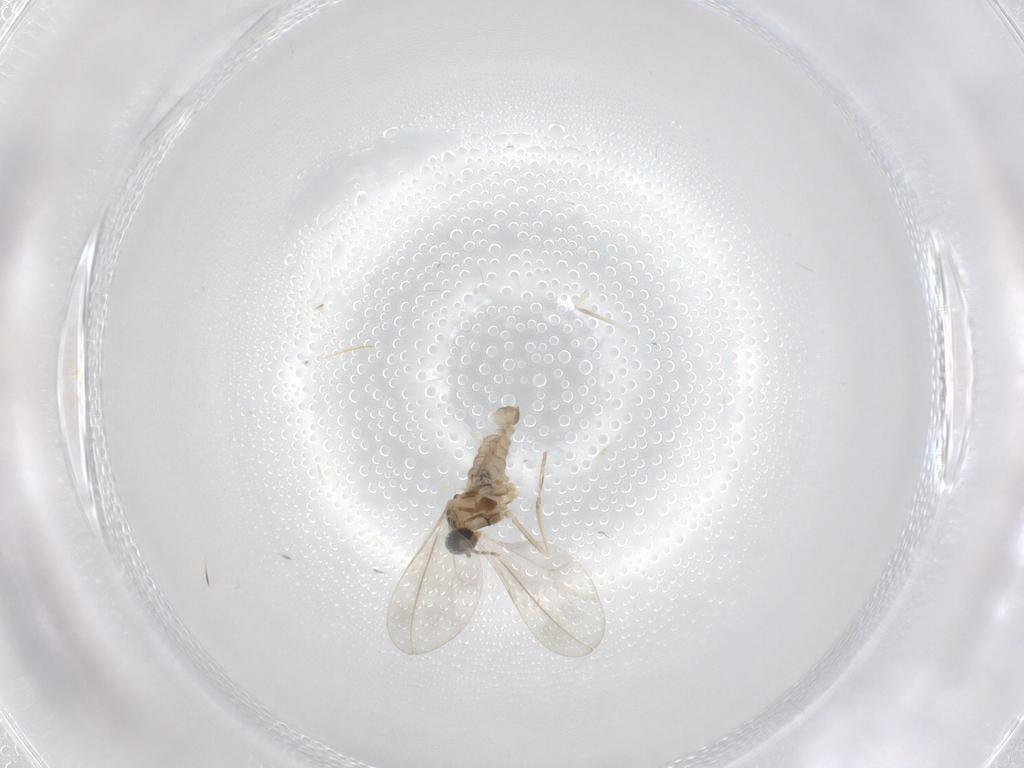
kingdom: Animalia
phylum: Arthropoda
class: Insecta
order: Diptera
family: Cecidomyiidae
